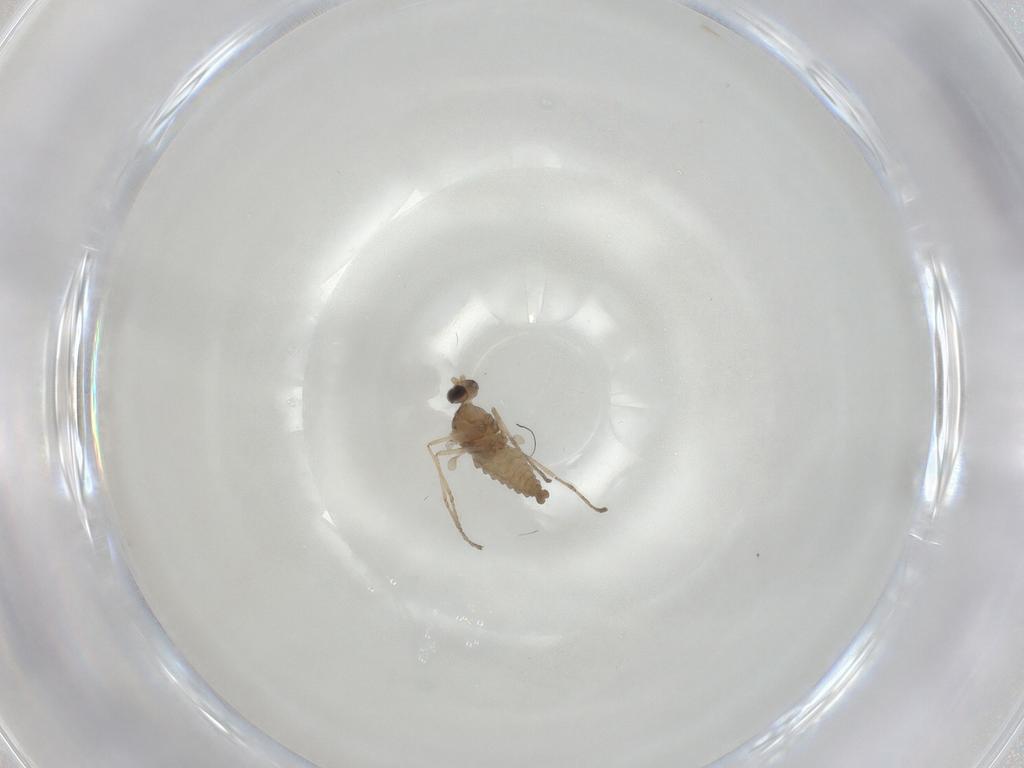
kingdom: Animalia
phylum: Arthropoda
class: Insecta
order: Diptera
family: Cecidomyiidae
